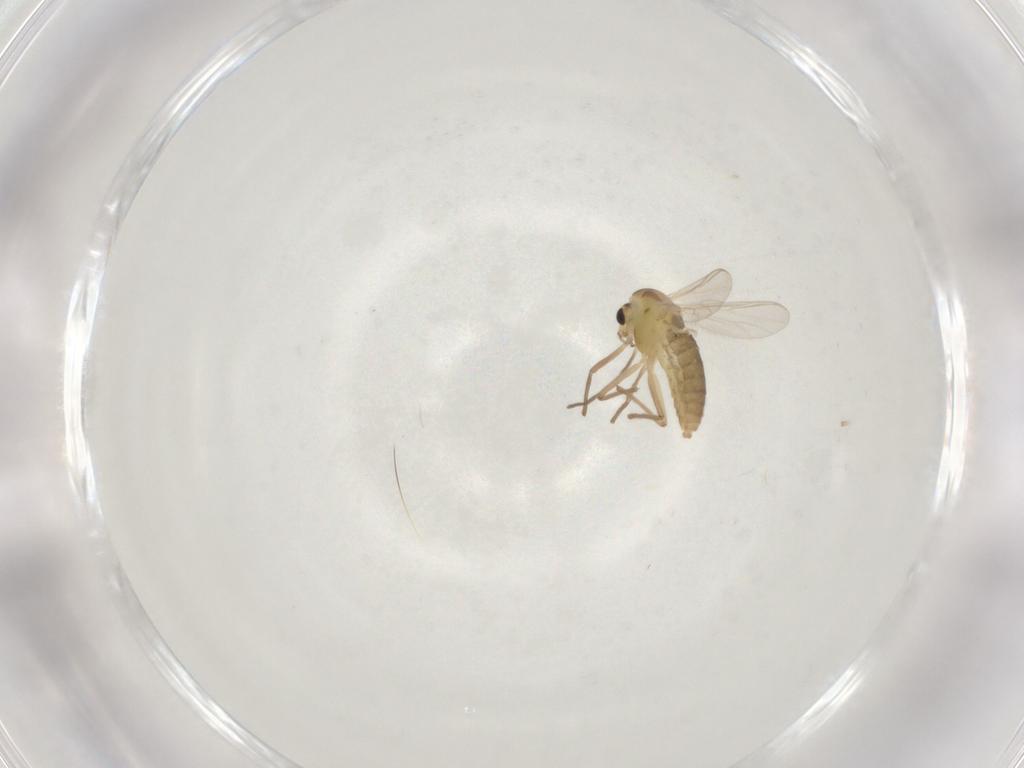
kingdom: Animalia
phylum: Arthropoda
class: Insecta
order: Diptera
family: Chironomidae
